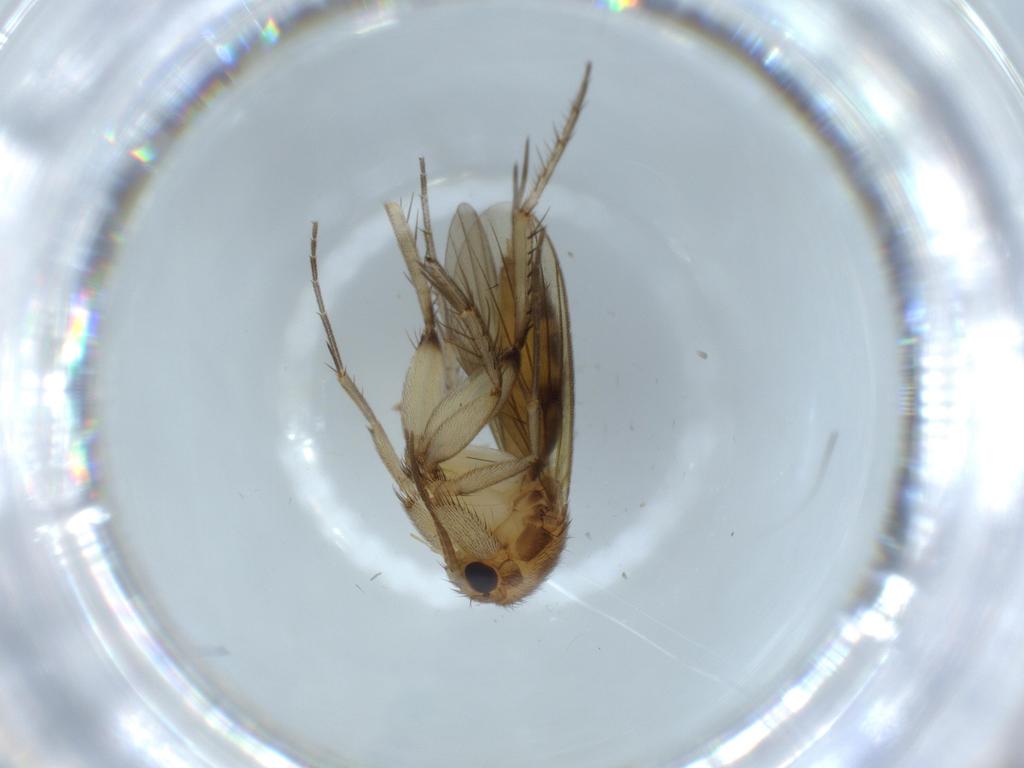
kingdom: Animalia
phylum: Arthropoda
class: Insecta
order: Diptera
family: Mycetophilidae
